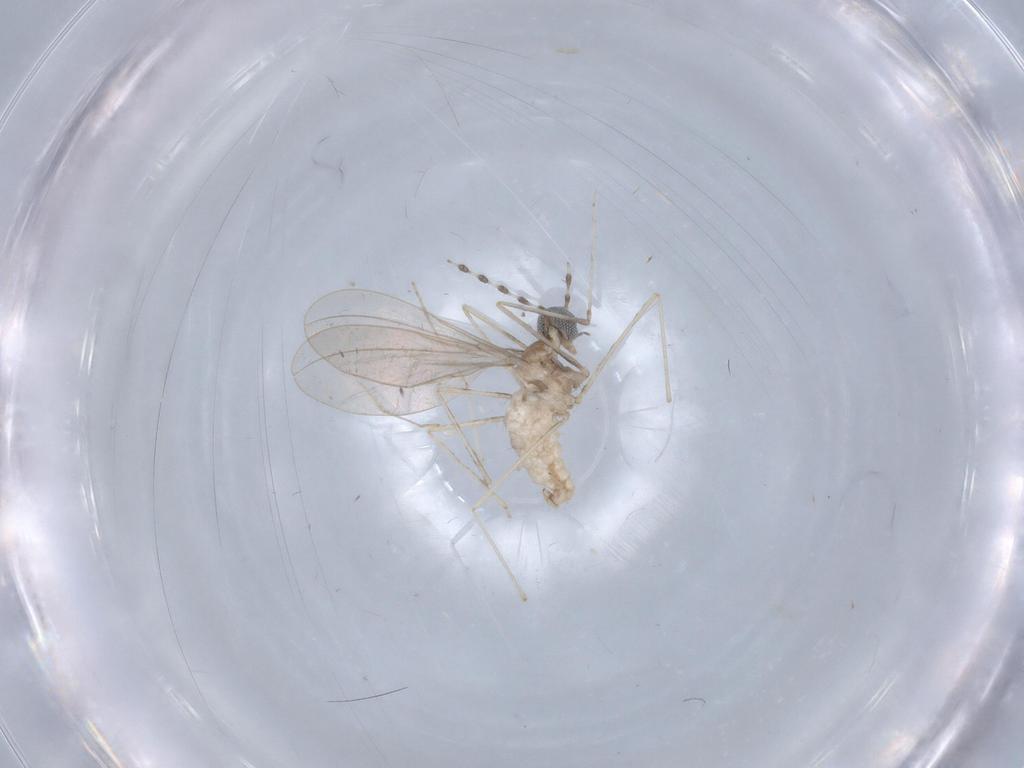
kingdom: Animalia
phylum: Arthropoda
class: Insecta
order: Diptera
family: Cecidomyiidae
